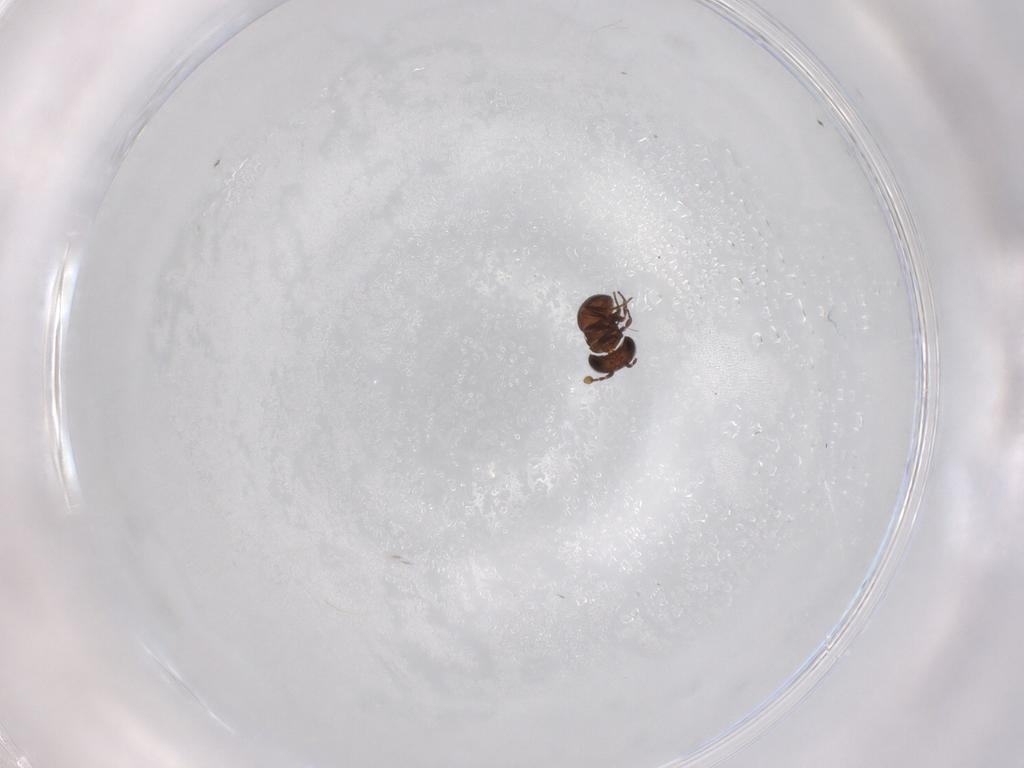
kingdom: Animalia
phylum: Arthropoda
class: Insecta
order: Hymenoptera
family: Scelionidae
